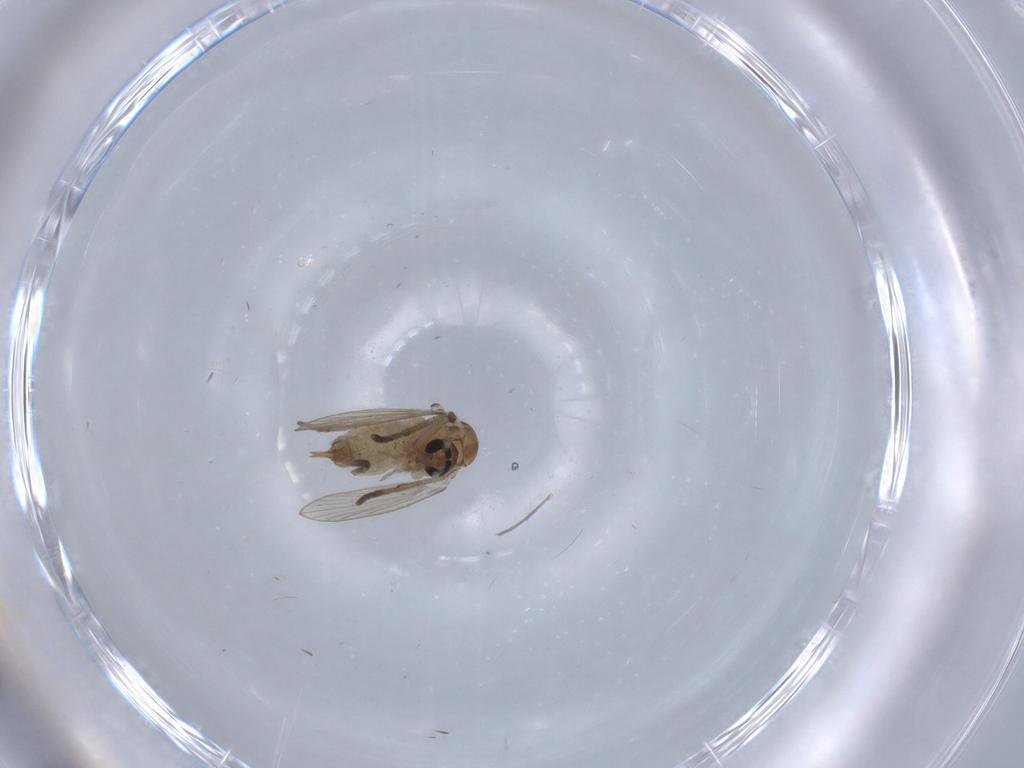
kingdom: Animalia
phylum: Arthropoda
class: Insecta
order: Diptera
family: Psychodidae
